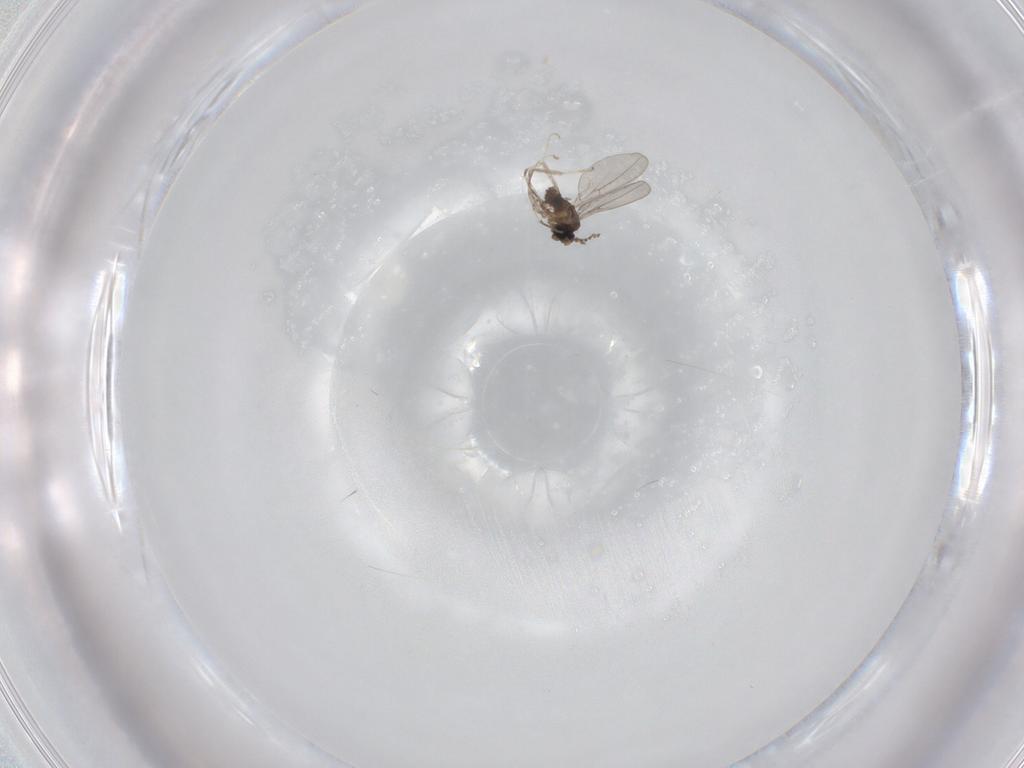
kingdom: Animalia
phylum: Arthropoda
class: Insecta
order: Diptera
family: Cecidomyiidae
